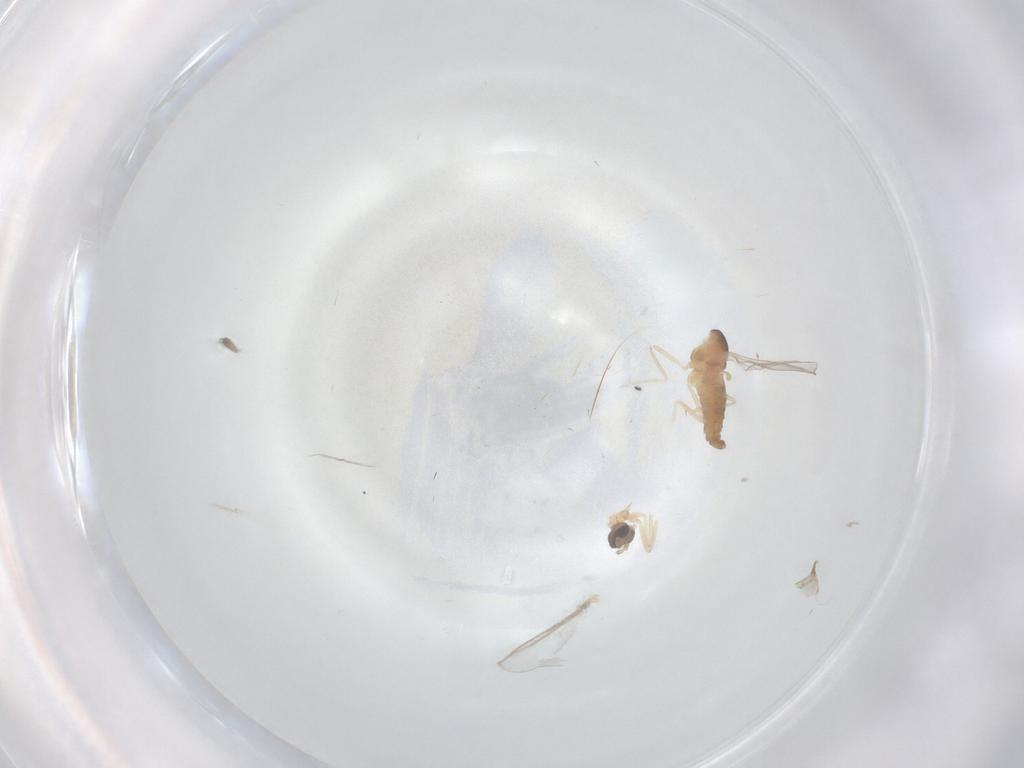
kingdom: Animalia
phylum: Arthropoda
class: Insecta
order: Diptera
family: Cecidomyiidae
